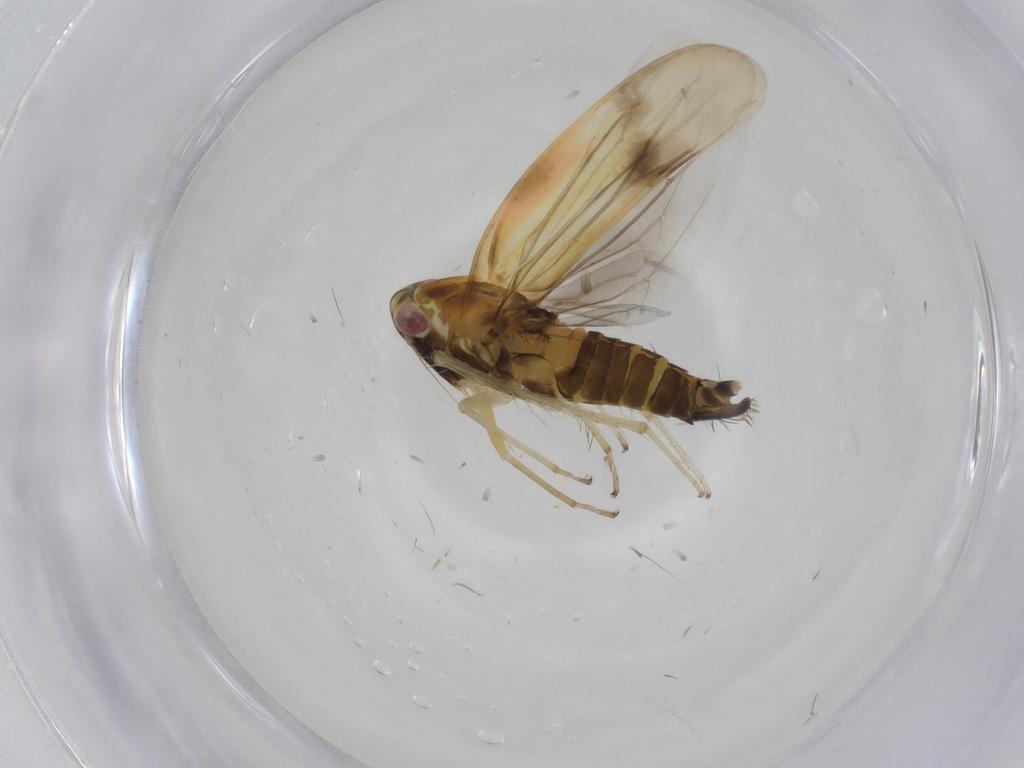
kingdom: Animalia
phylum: Arthropoda
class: Insecta
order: Hemiptera
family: Cicadellidae
